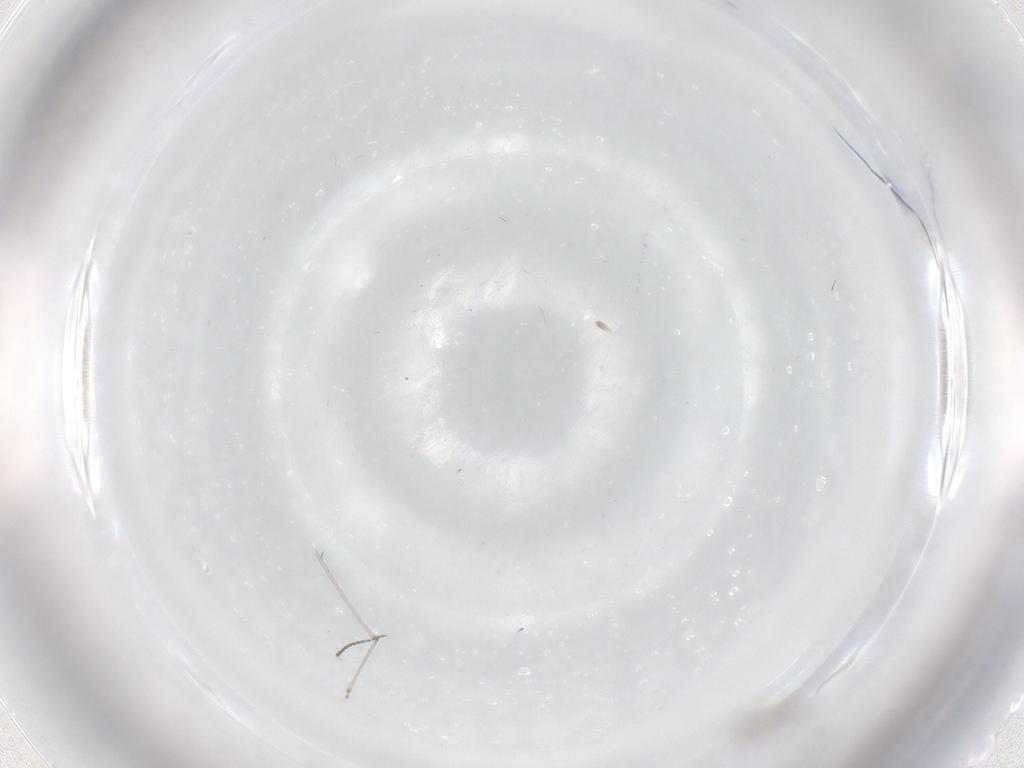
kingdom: Animalia
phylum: Arthropoda
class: Insecta
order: Diptera
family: Cecidomyiidae
